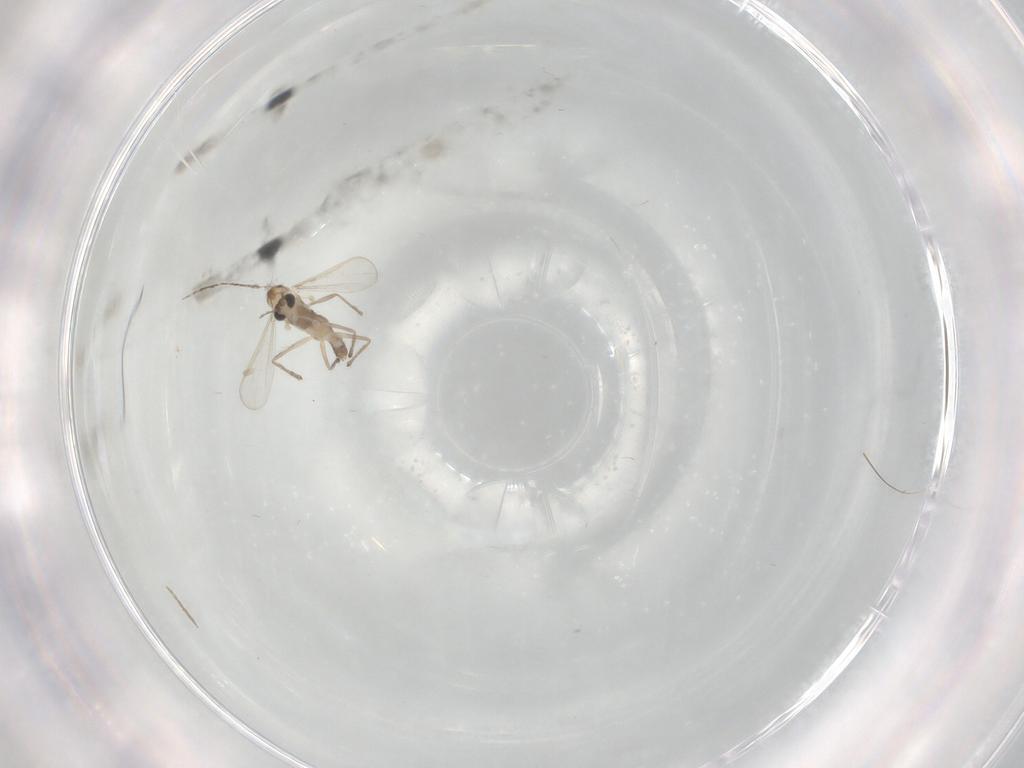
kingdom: Animalia
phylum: Arthropoda
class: Insecta
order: Diptera
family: Chironomidae
